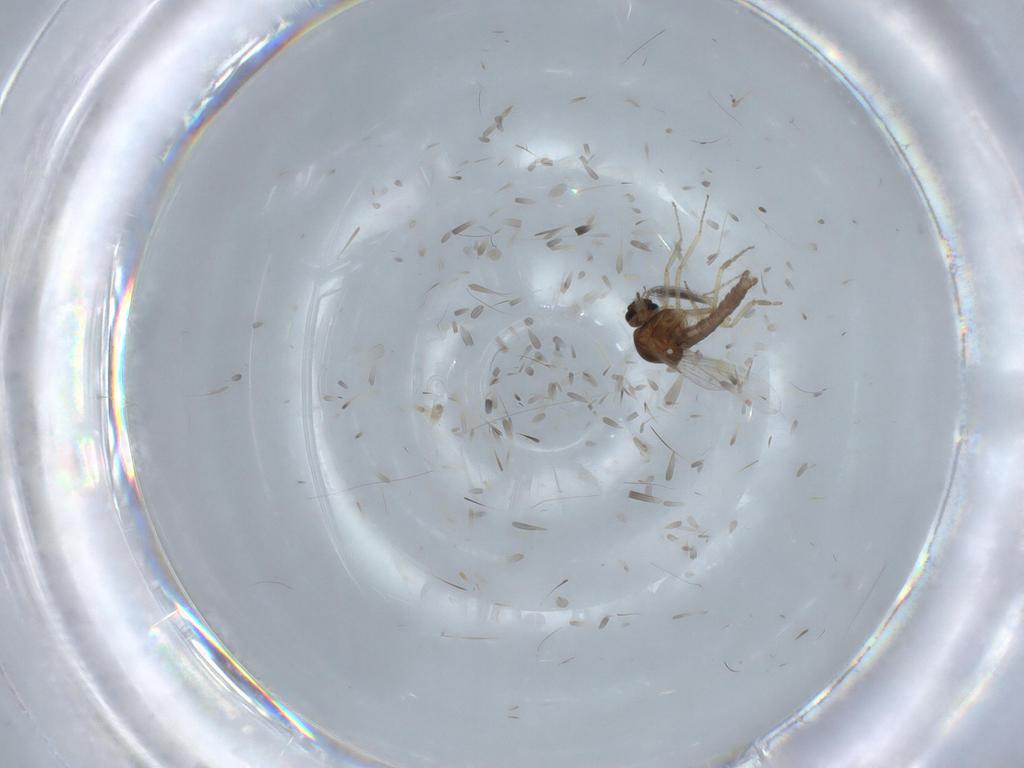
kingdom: Animalia
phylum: Arthropoda
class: Insecta
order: Diptera
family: Ceratopogonidae
